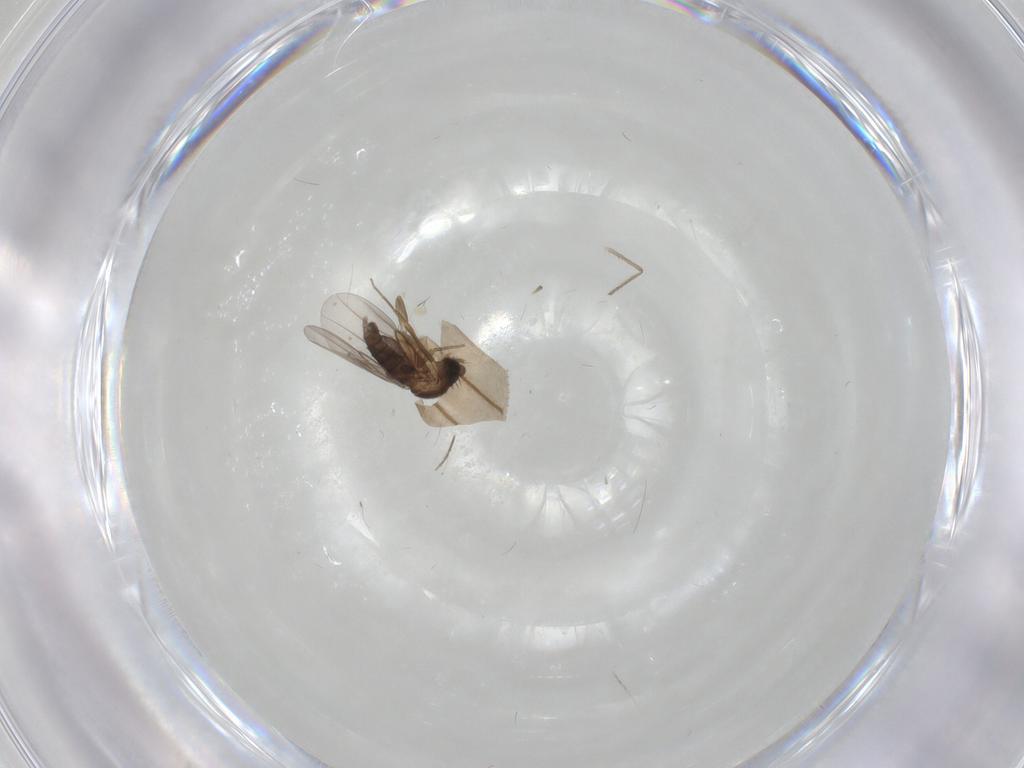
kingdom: Animalia
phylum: Arthropoda
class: Insecta
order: Diptera
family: Chironomidae
